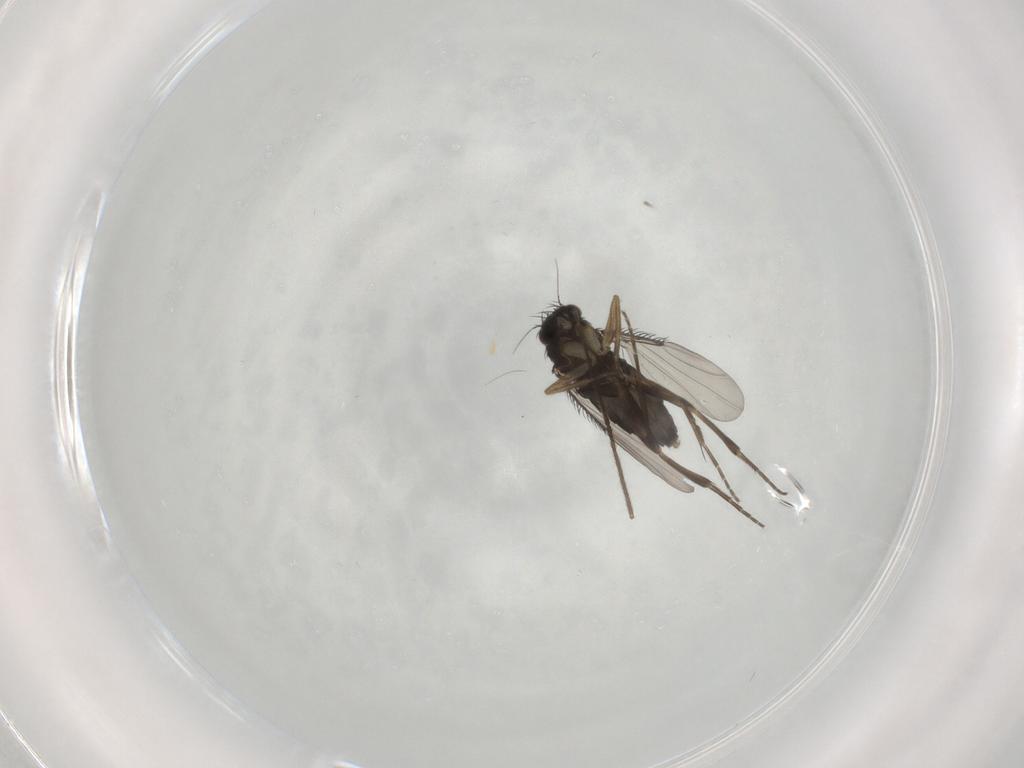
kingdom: Animalia
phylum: Arthropoda
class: Insecta
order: Diptera
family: Phoridae
